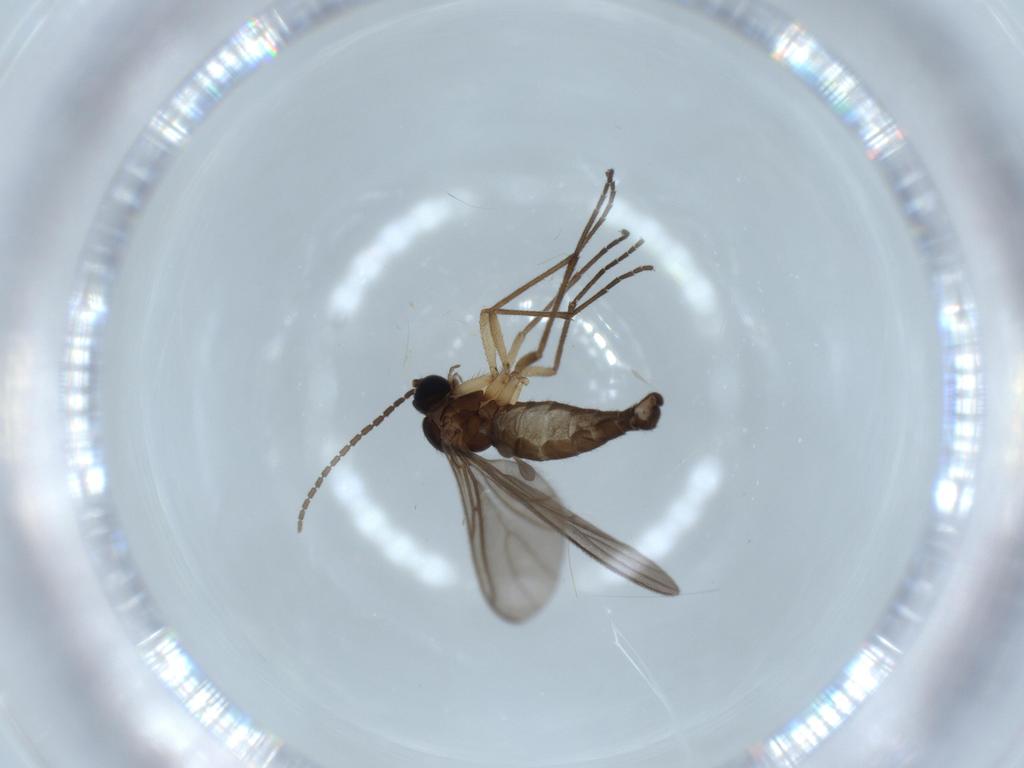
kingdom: Animalia
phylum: Arthropoda
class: Insecta
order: Diptera
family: Sciaridae
